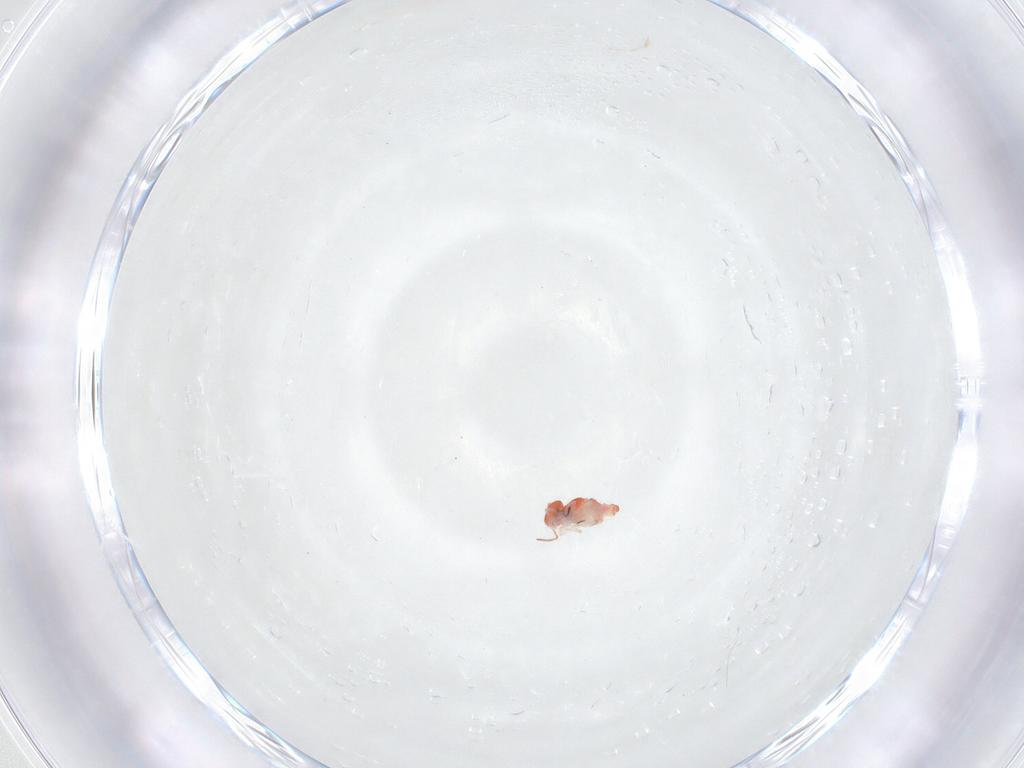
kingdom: Animalia
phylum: Arthropoda
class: Collembola
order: Symphypleona
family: Bourletiellidae
